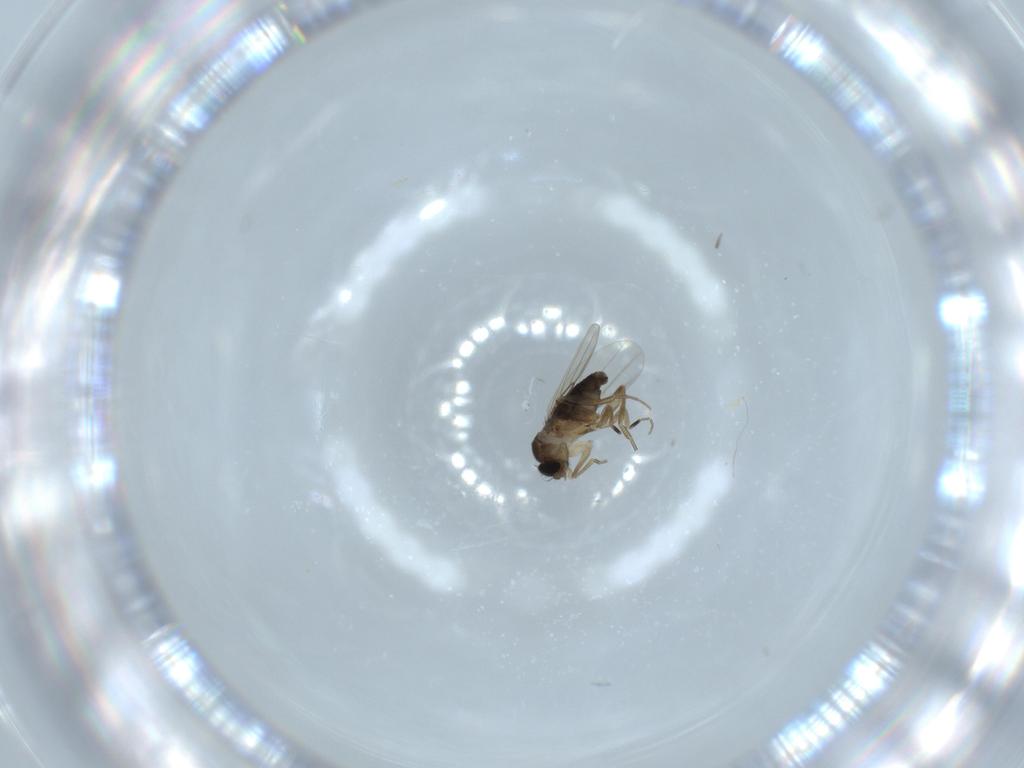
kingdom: Animalia
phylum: Arthropoda
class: Insecta
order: Diptera
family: Phoridae
